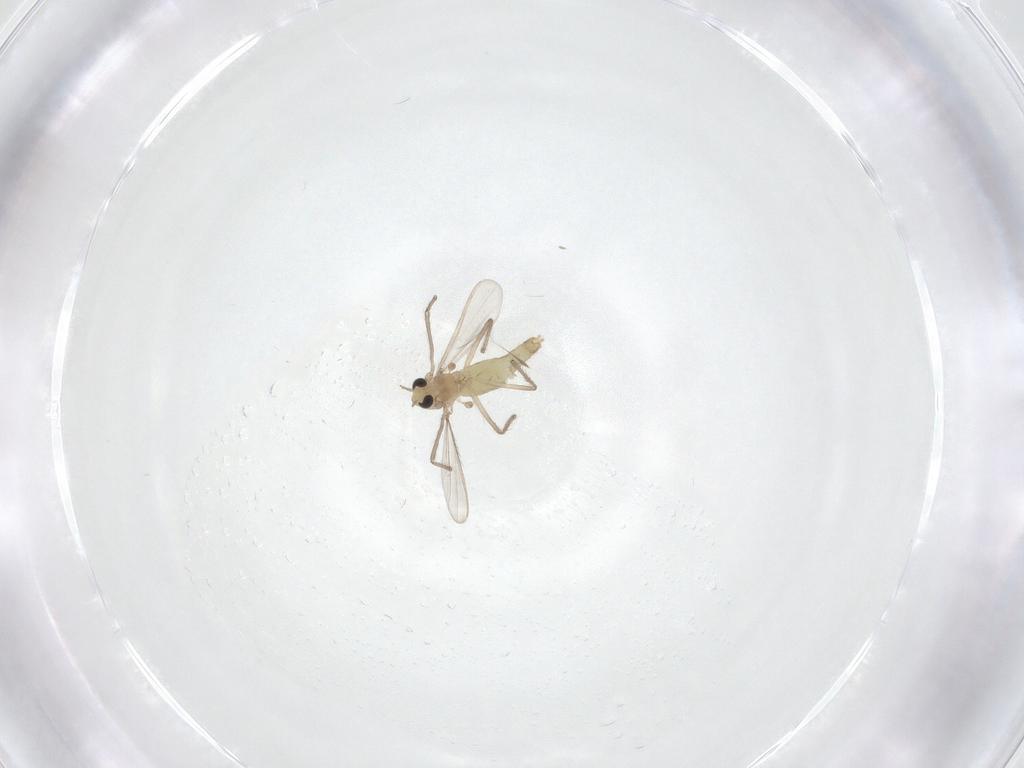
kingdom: Animalia
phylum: Arthropoda
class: Insecta
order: Diptera
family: Chironomidae
